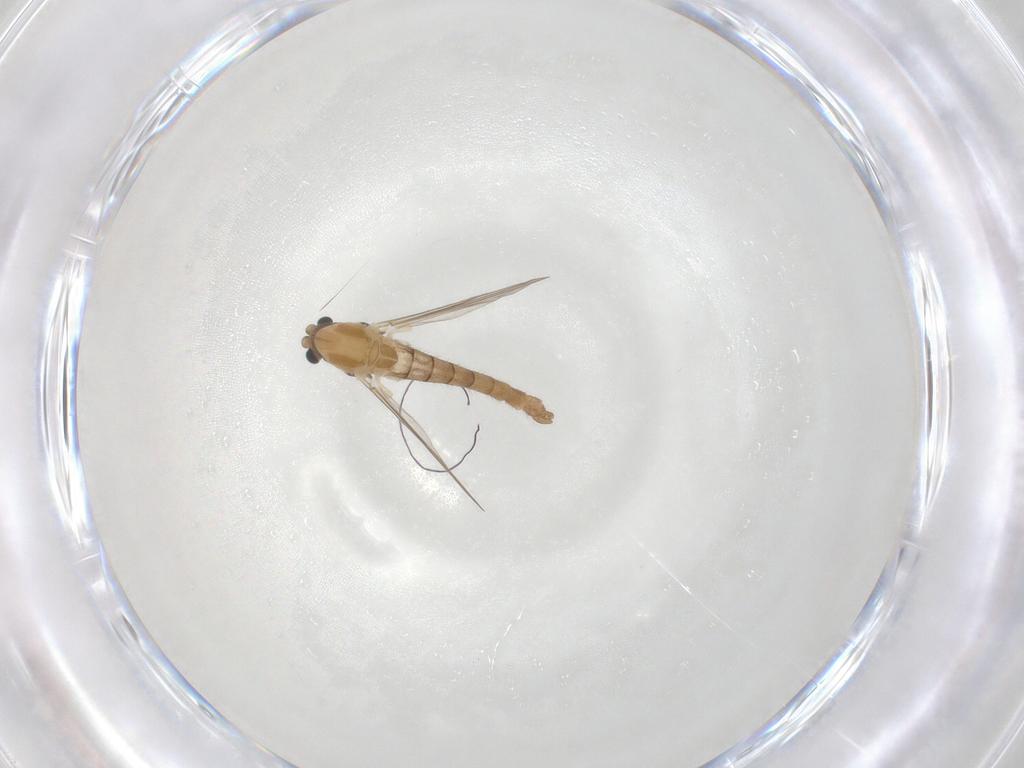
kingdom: Animalia
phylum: Arthropoda
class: Insecta
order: Diptera
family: Chironomidae
